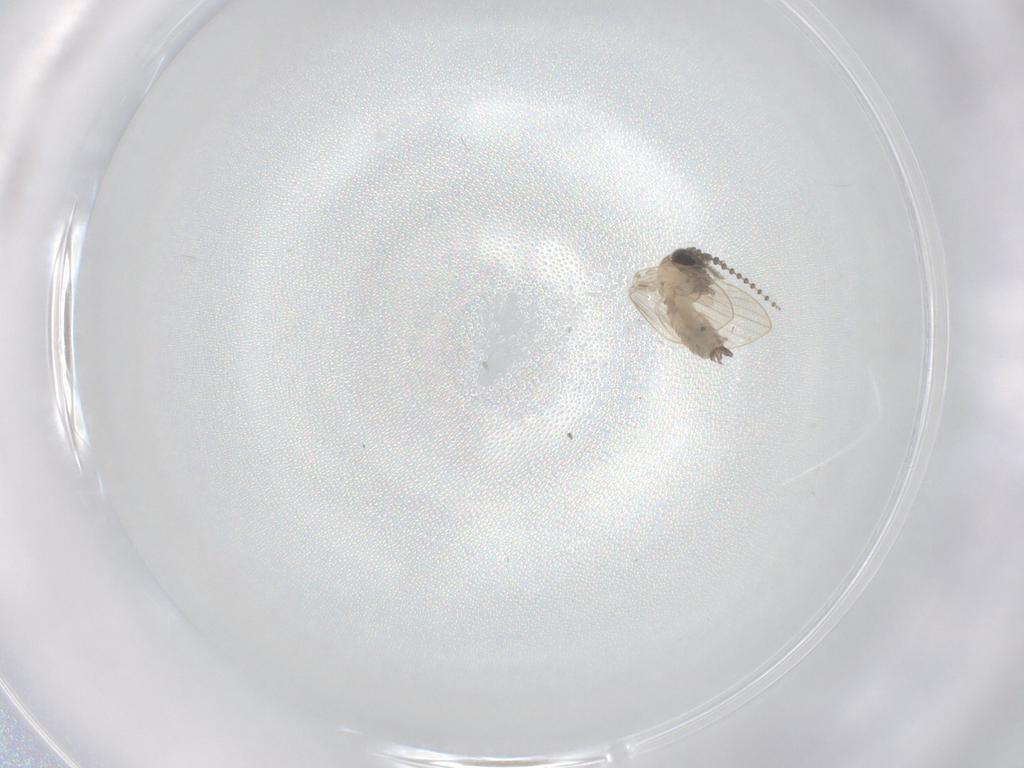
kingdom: Animalia
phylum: Arthropoda
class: Insecta
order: Diptera
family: Psychodidae
